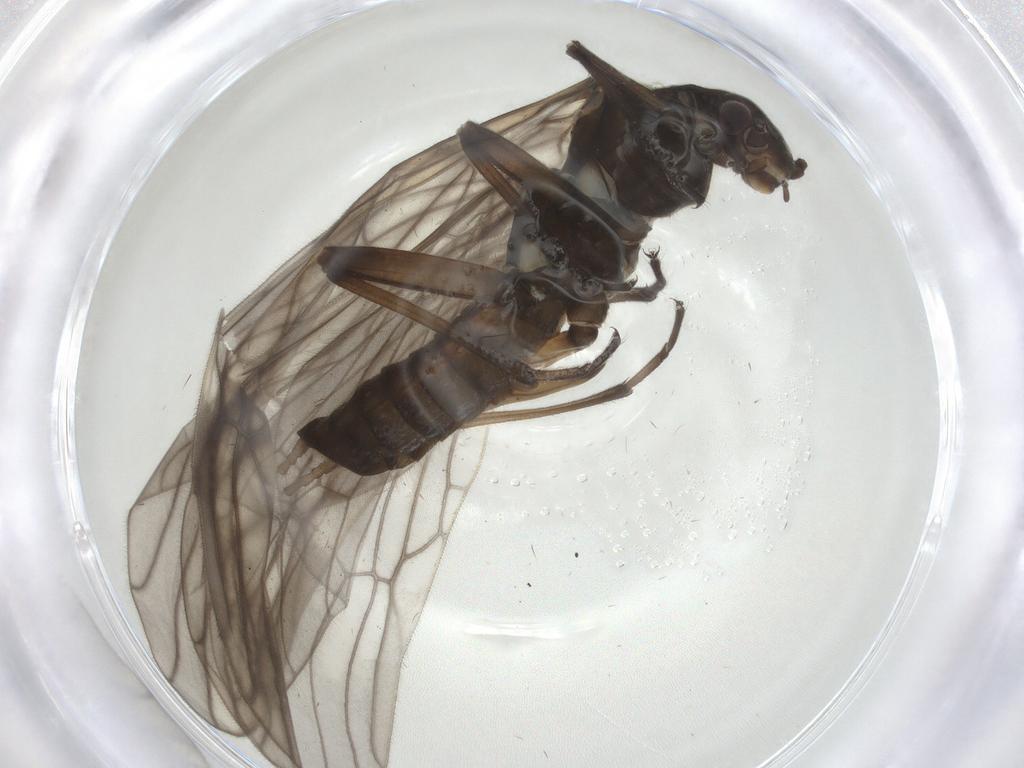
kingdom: Animalia
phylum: Arthropoda
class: Insecta
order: Plecoptera
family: Capniidae
